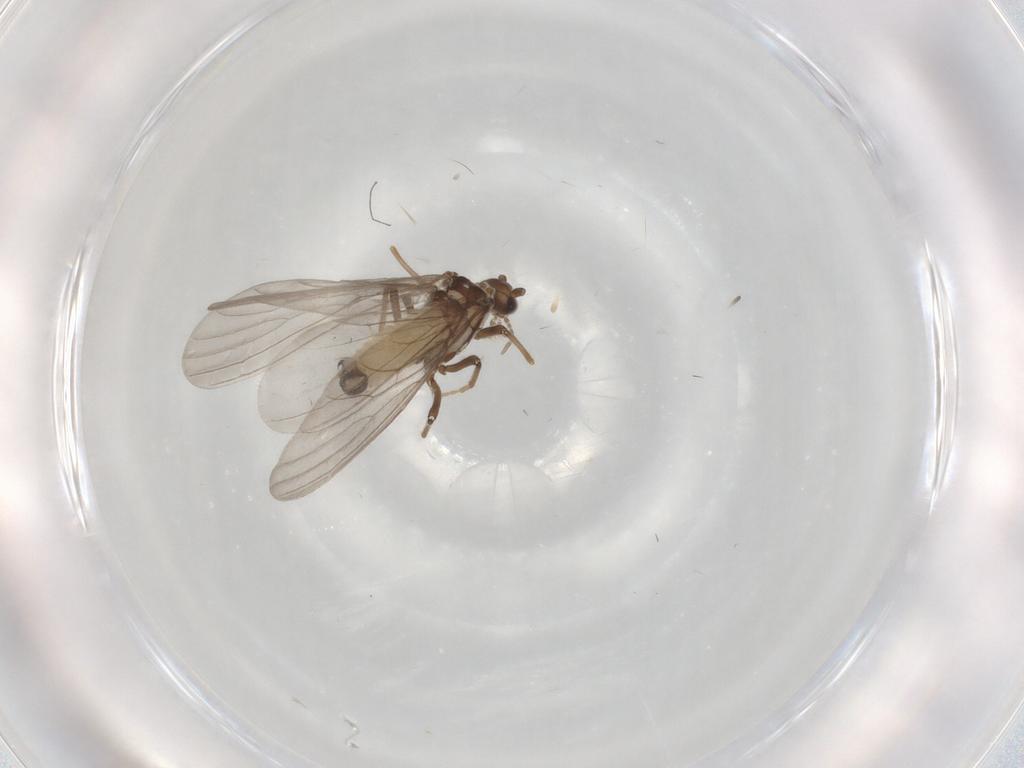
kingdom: Animalia
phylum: Arthropoda
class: Insecta
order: Neuroptera
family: Coniopterygidae
